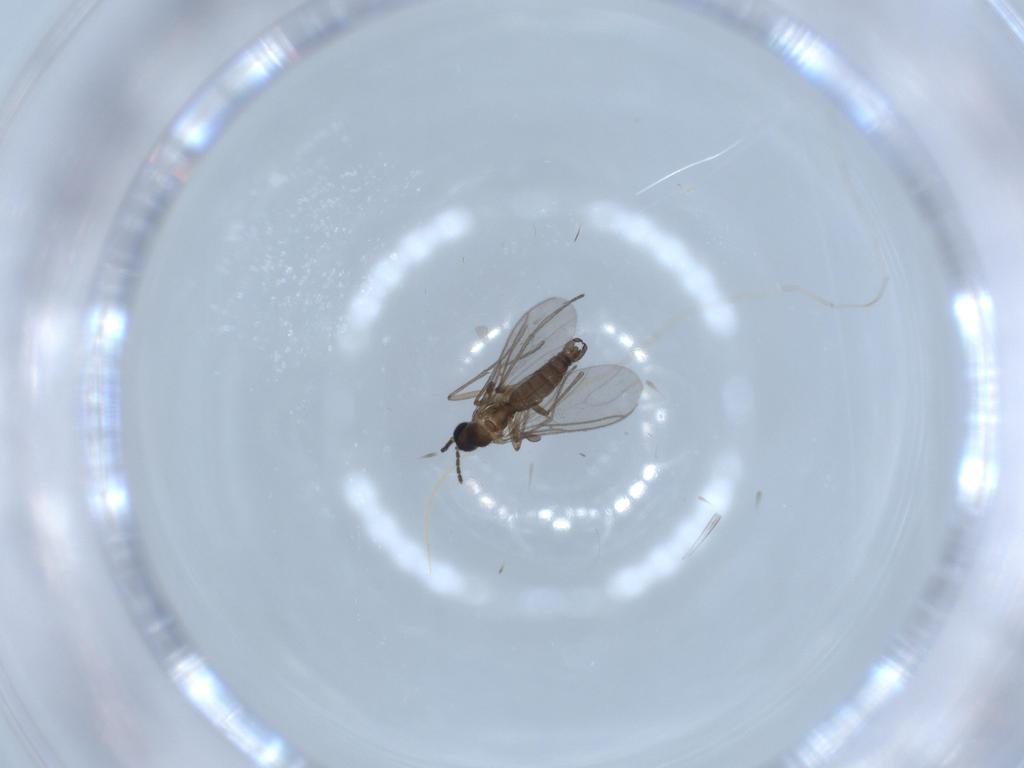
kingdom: Animalia
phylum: Arthropoda
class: Insecta
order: Diptera
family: Sciaridae
